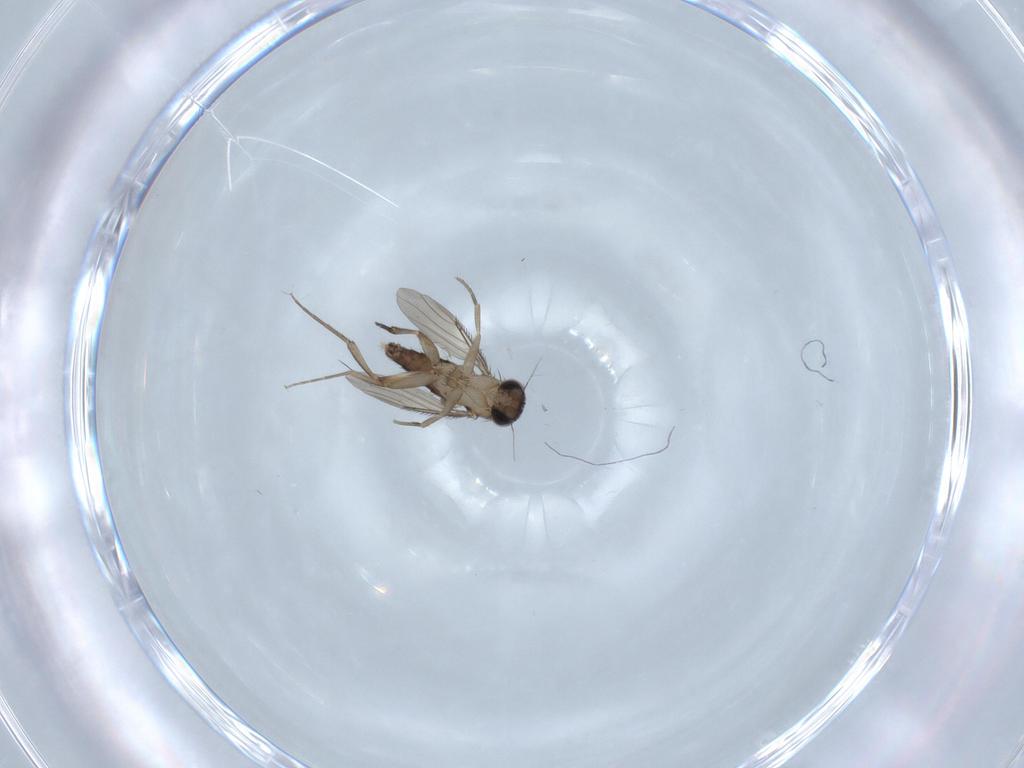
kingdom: Animalia
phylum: Arthropoda
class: Insecta
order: Diptera
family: Phoridae
